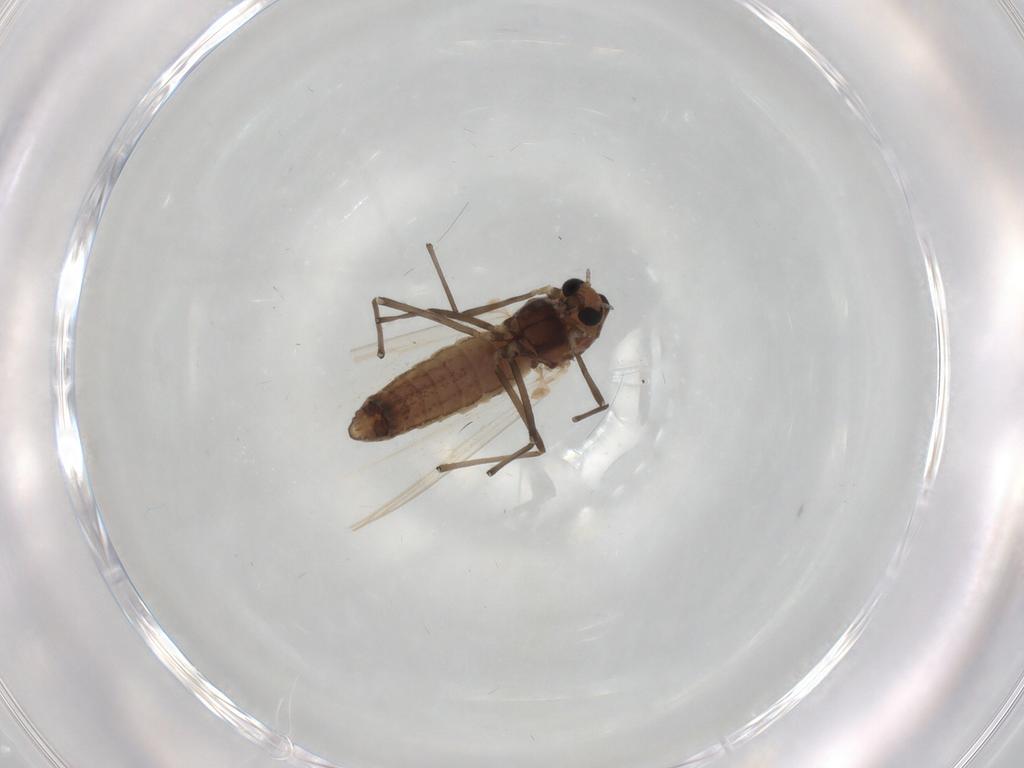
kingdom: Animalia
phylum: Arthropoda
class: Insecta
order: Diptera
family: Chironomidae
